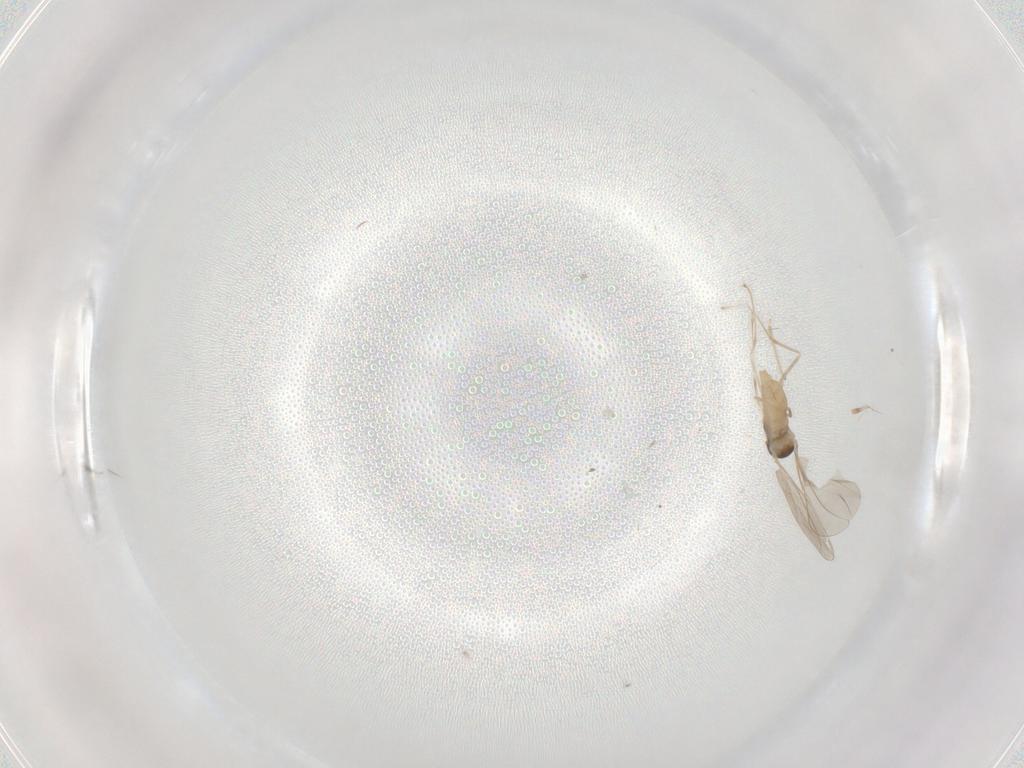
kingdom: Animalia
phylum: Arthropoda
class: Insecta
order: Diptera
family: Cecidomyiidae
